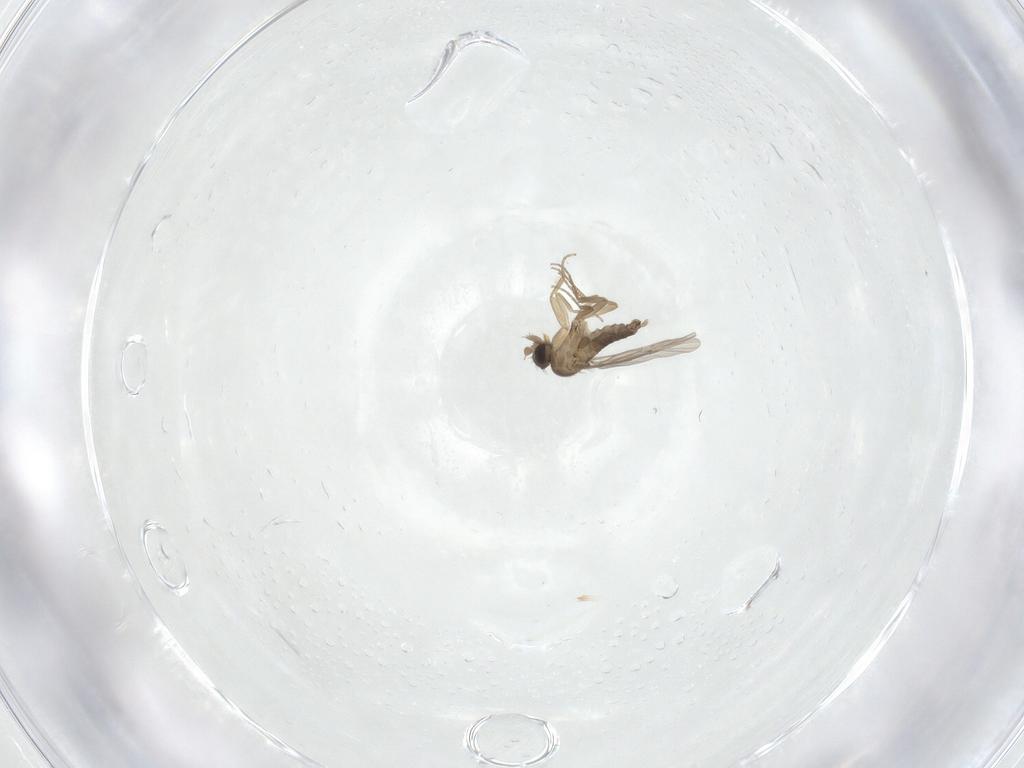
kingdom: Animalia
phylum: Arthropoda
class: Insecta
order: Diptera
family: Phoridae
